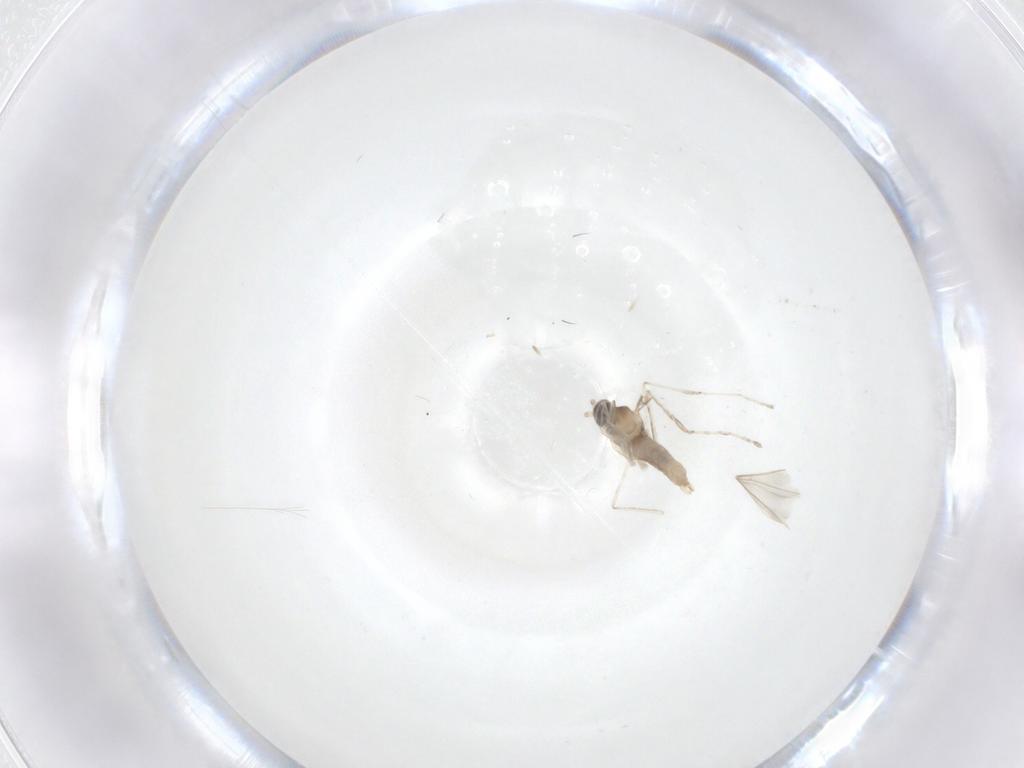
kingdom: Animalia
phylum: Arthropoda
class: Insecta
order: Diptera
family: Cecidomyiidae
